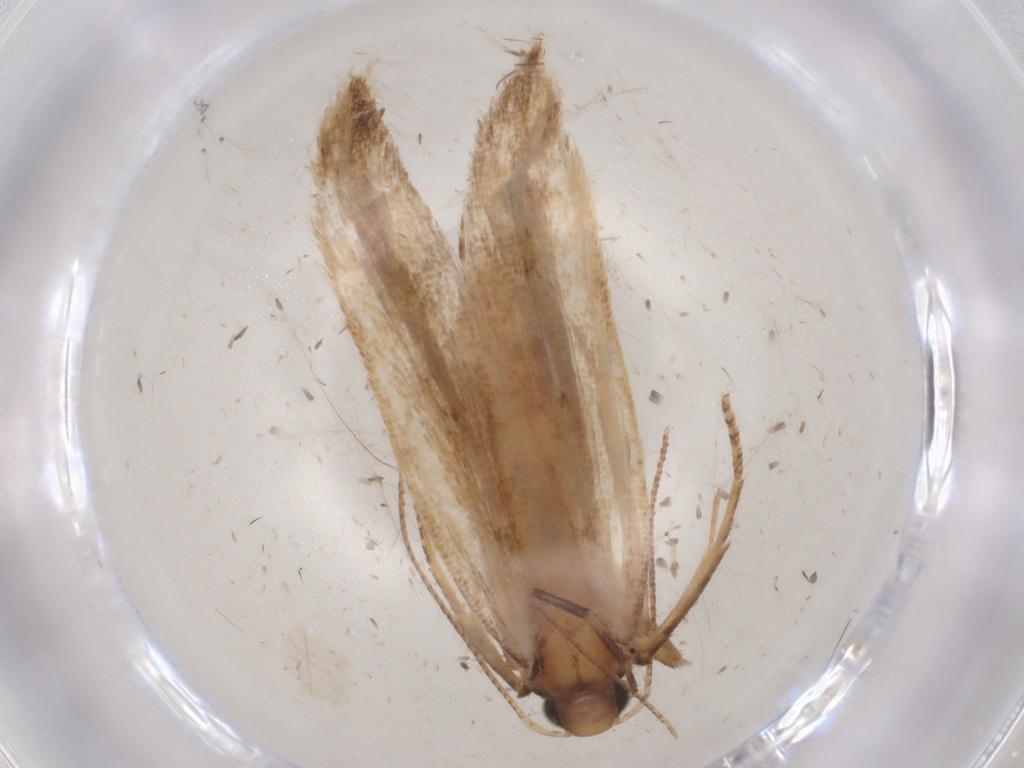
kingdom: Animalia
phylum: Arthropoda
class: Insecta
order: Lepidoptera
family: Gelechiidae
